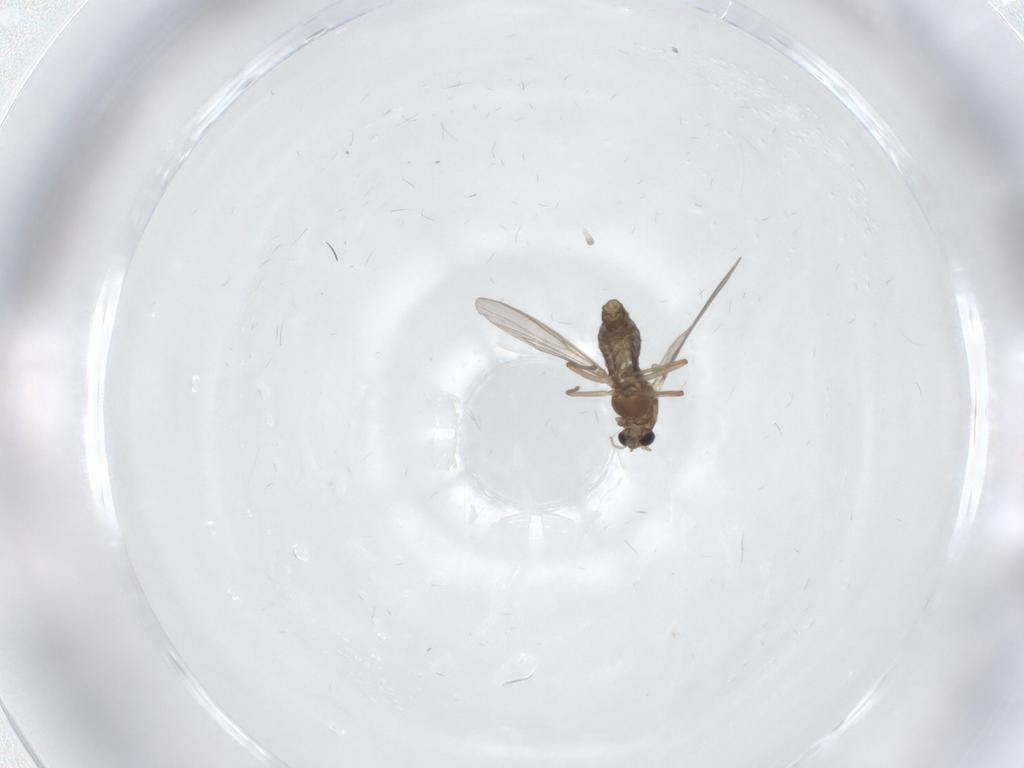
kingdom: Animalia
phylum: Arthropoda
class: Insecta
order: Diptera
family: Chironomidae
